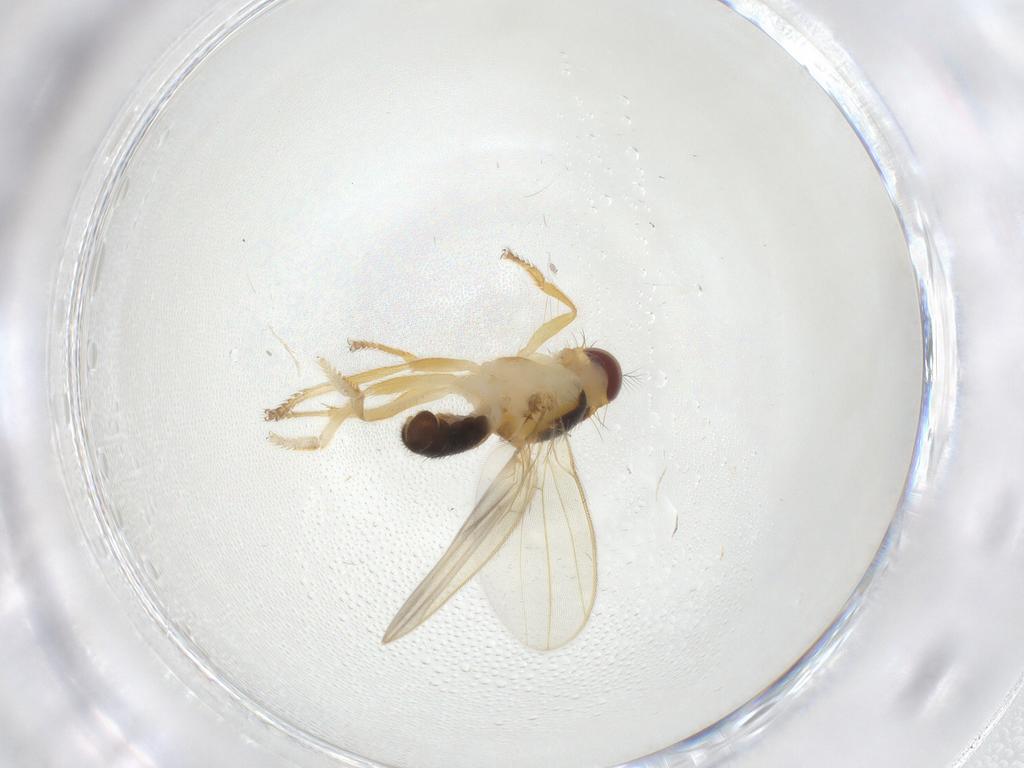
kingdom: Animalia
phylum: Arthropoda
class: Insecta
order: Diptera
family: Periscelididae
